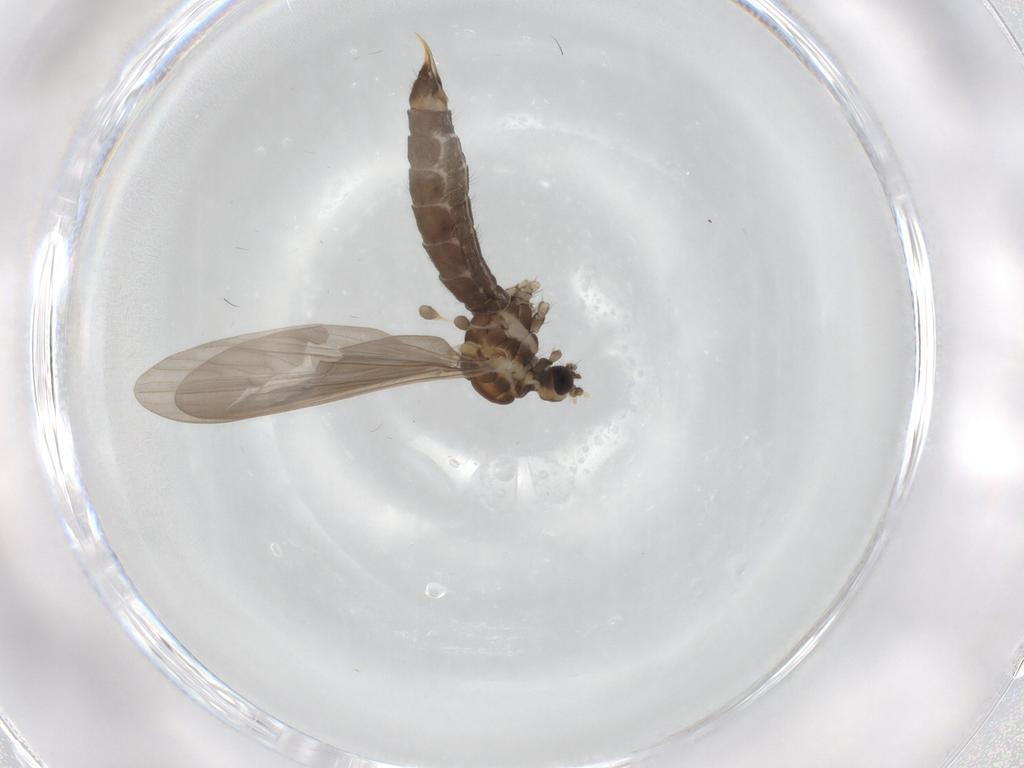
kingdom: Animalia
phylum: Arthropoda
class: Insecta
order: Diptera
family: Limoniidae
